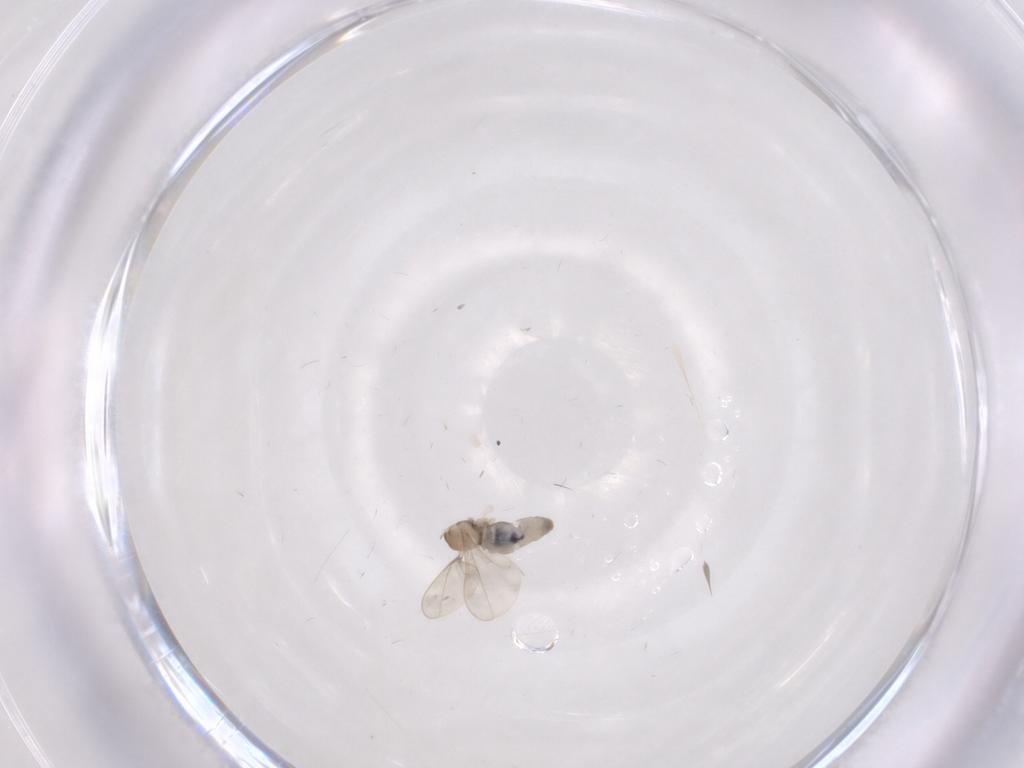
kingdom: Animalia
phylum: Arthropoda
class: Insecta
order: Diptera
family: Cecidomyiidae
